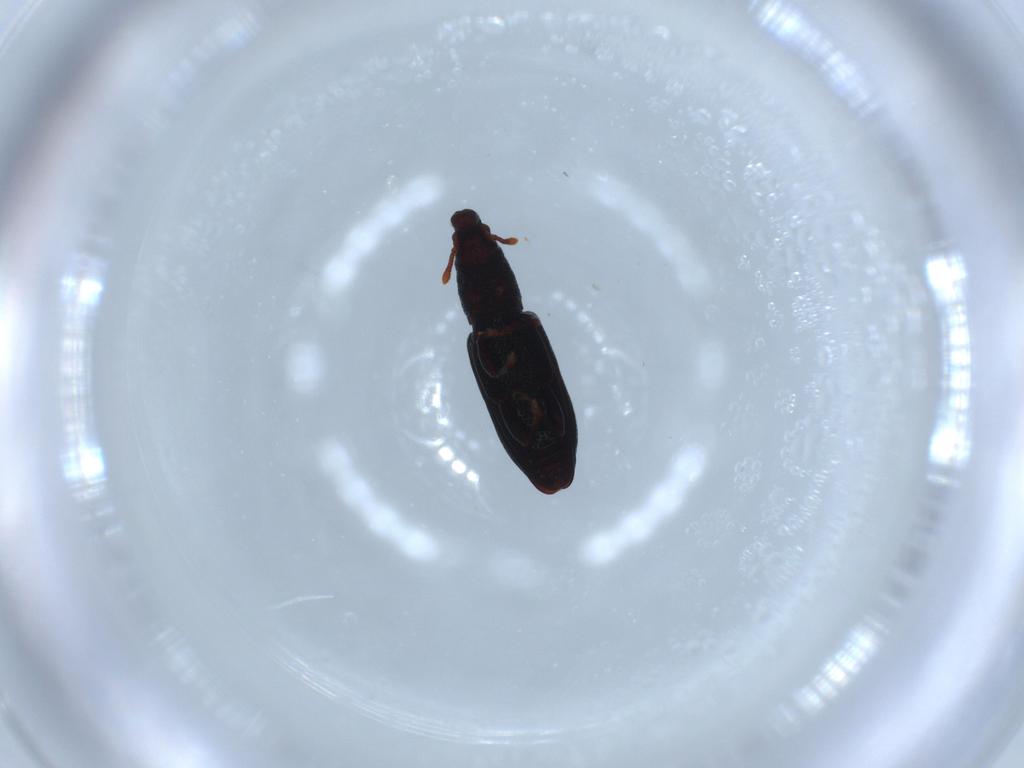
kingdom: Animalia
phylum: Arthropoda
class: Insecta
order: Coleoptera
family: Curculionidae
